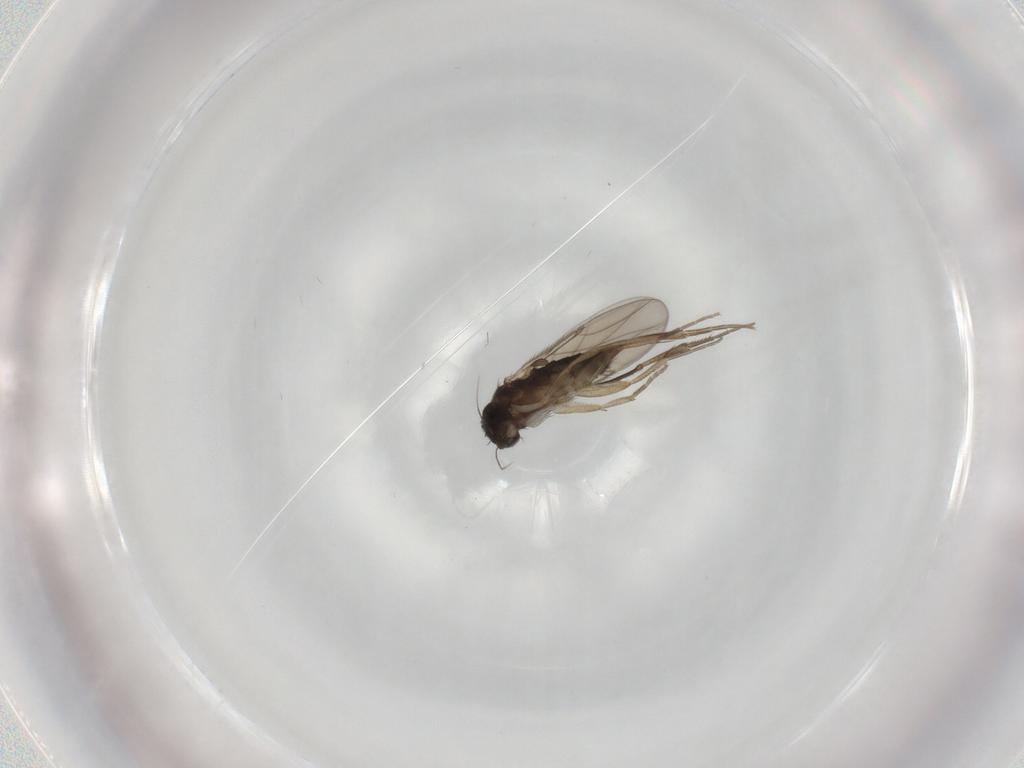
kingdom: Animalia
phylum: Arthropoda
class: Insecta
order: Diptera
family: Phoridae
